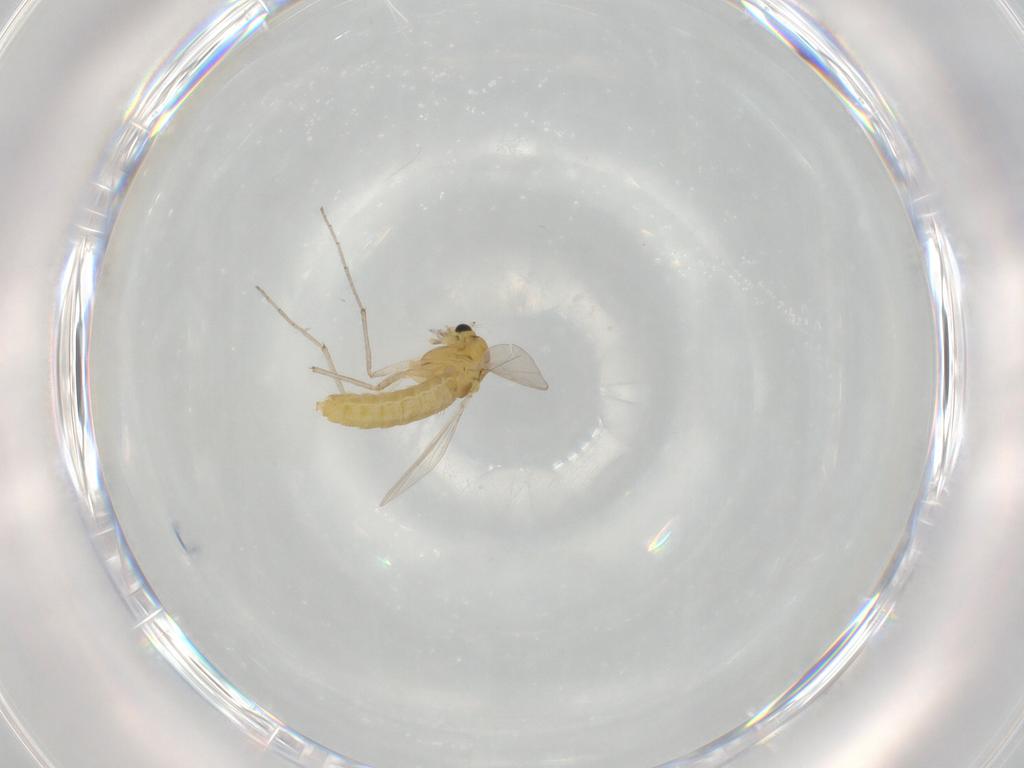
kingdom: Animalia
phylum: Arthropoda
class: Insecta
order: Diptera
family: Chironomidae
